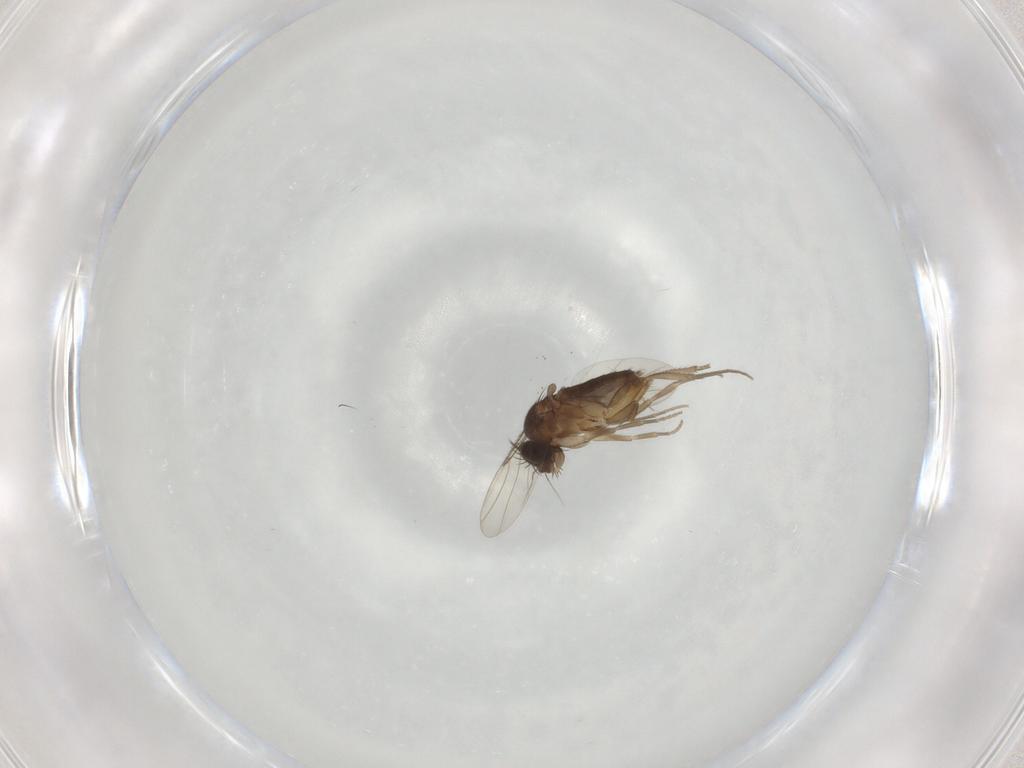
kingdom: Animalia
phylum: Arthropoda
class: Insecta
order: Diptera
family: Chironomidae
